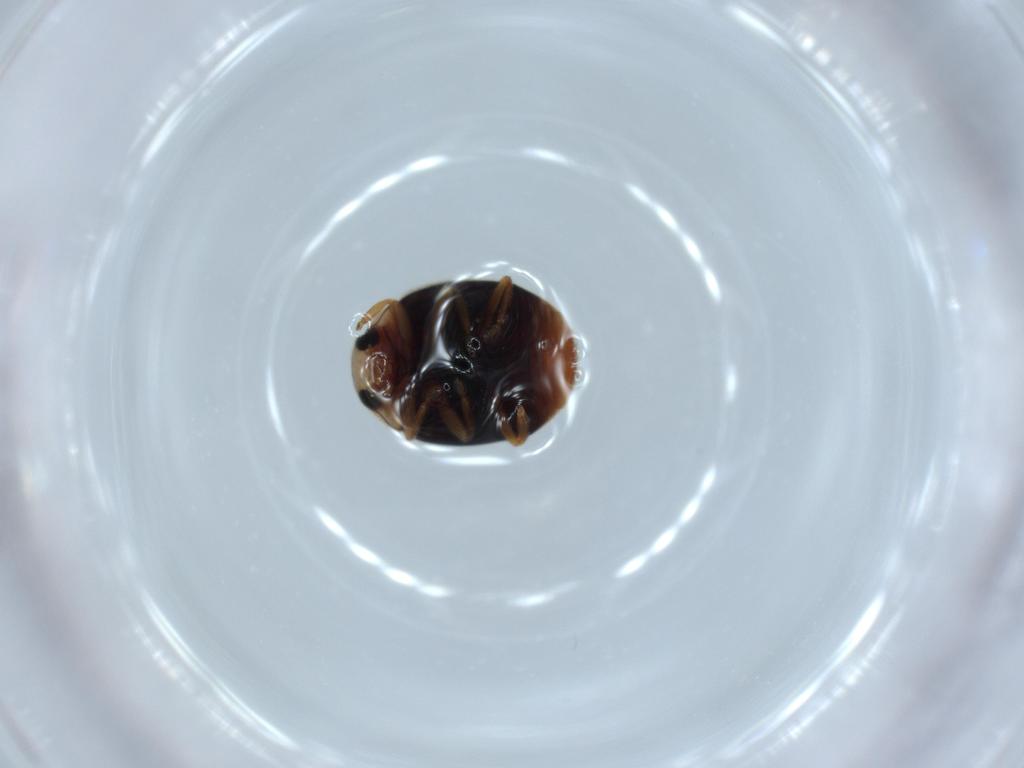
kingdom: Animalia
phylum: Arthropoda
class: Insecta
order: Coleoptera
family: Coccinellidae
